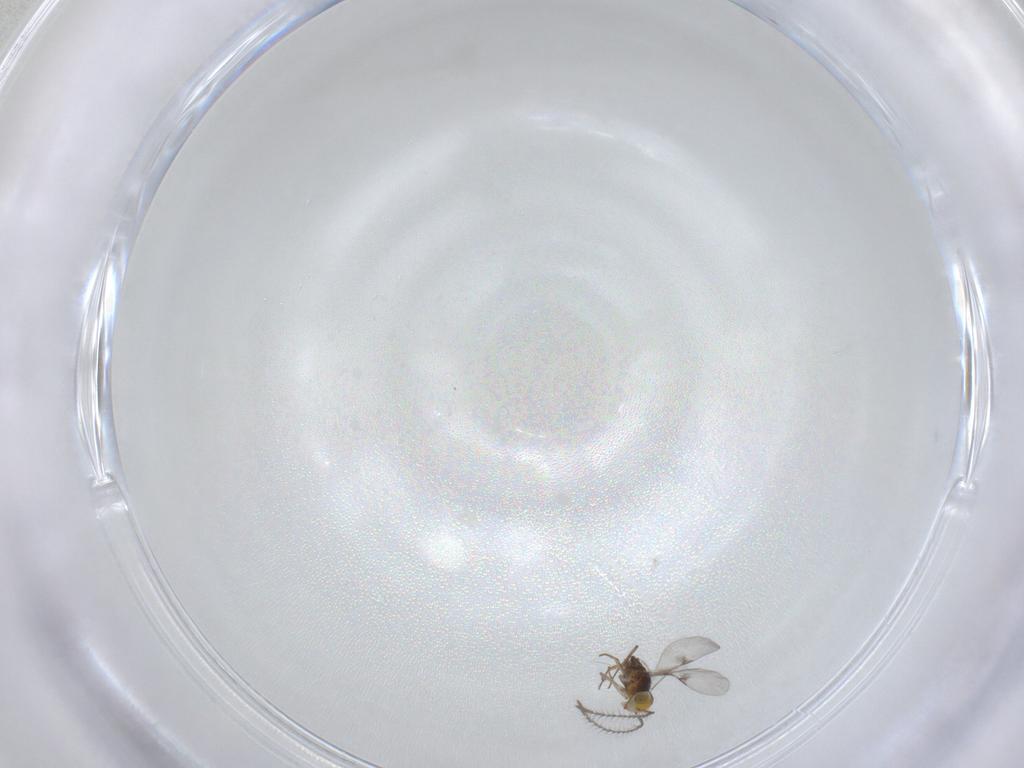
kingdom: Animalia
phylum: Arthropoda
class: Insecta
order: Hymenoptera
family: Encyrtidae
